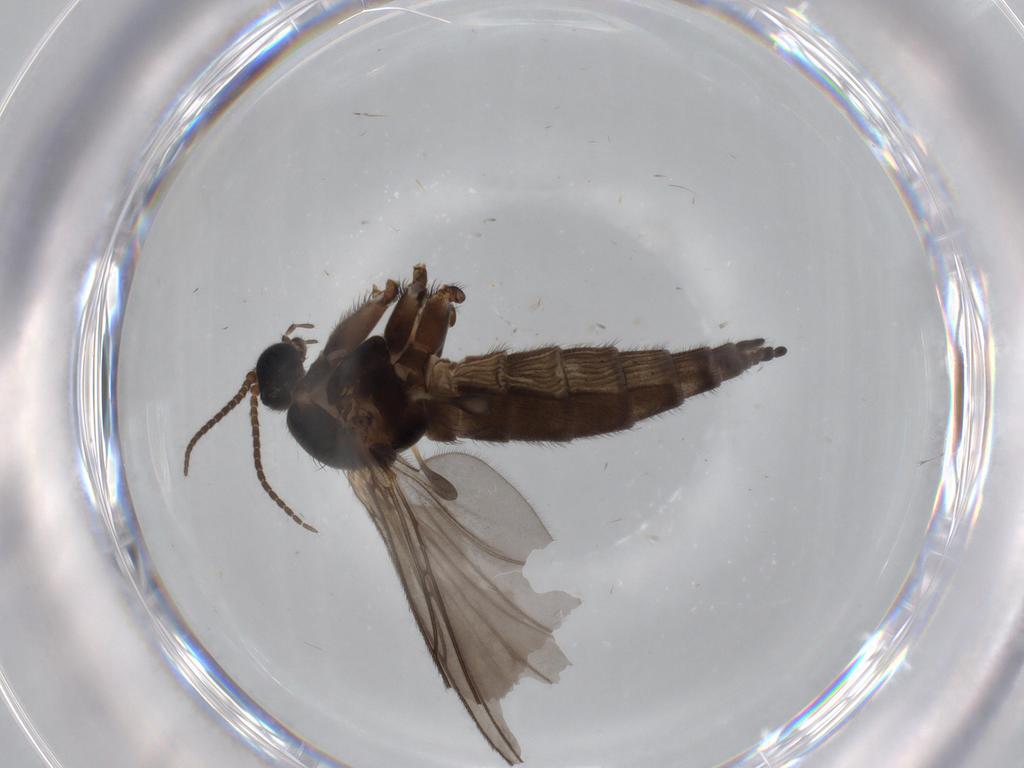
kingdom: Animalia
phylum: Arthropoda
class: Insecta
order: Diptera
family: Sciaridae
